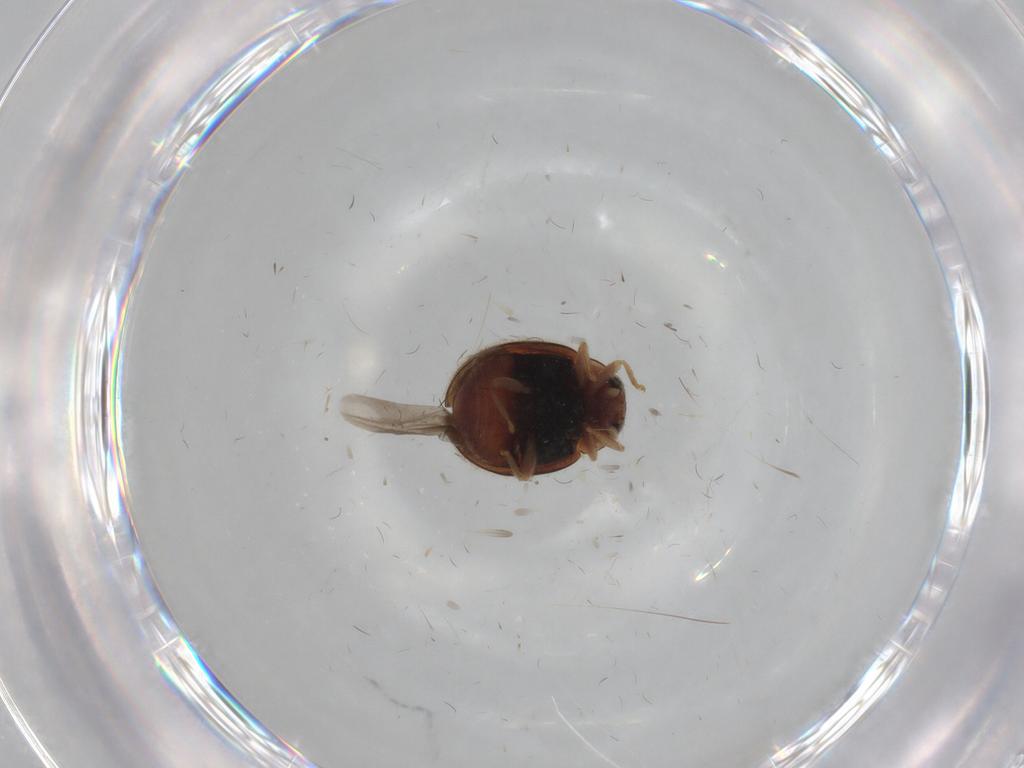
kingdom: Animalia
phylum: Arthropoda
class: Insecta
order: Coleoptera
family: Coccinellidae
